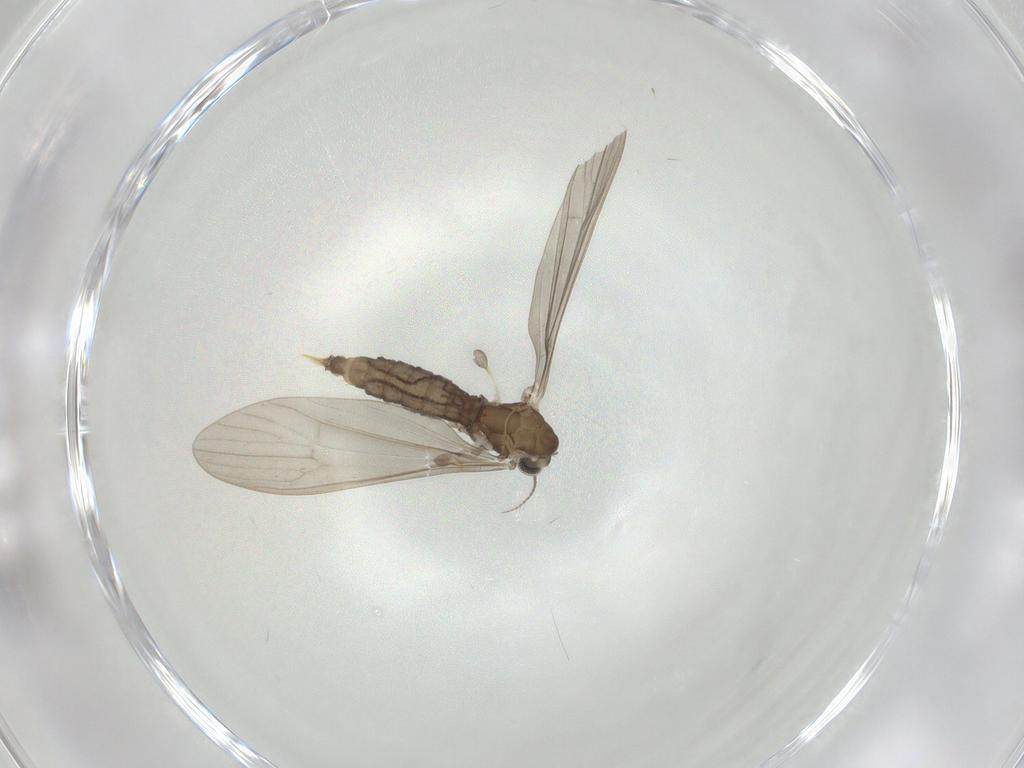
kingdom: Animalia
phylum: Arthropoda
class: Insecta
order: Diptera
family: Limoniidae
